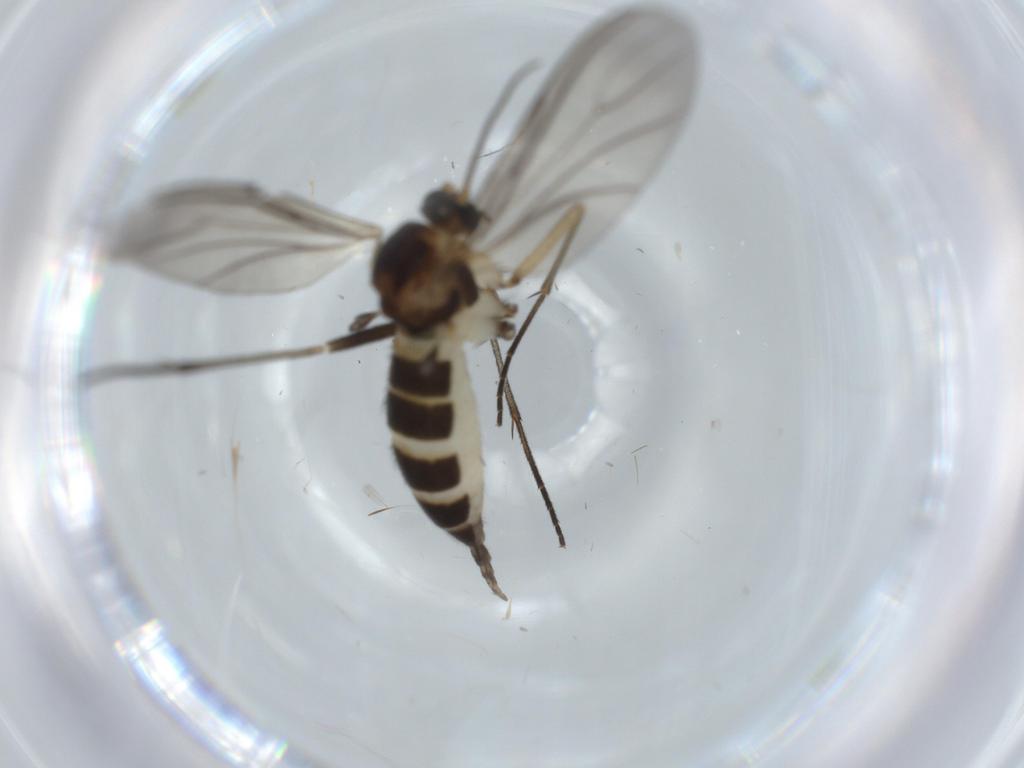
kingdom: Animalia
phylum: Arthropoda
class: Insecta
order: Diptera
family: Sciaridae
